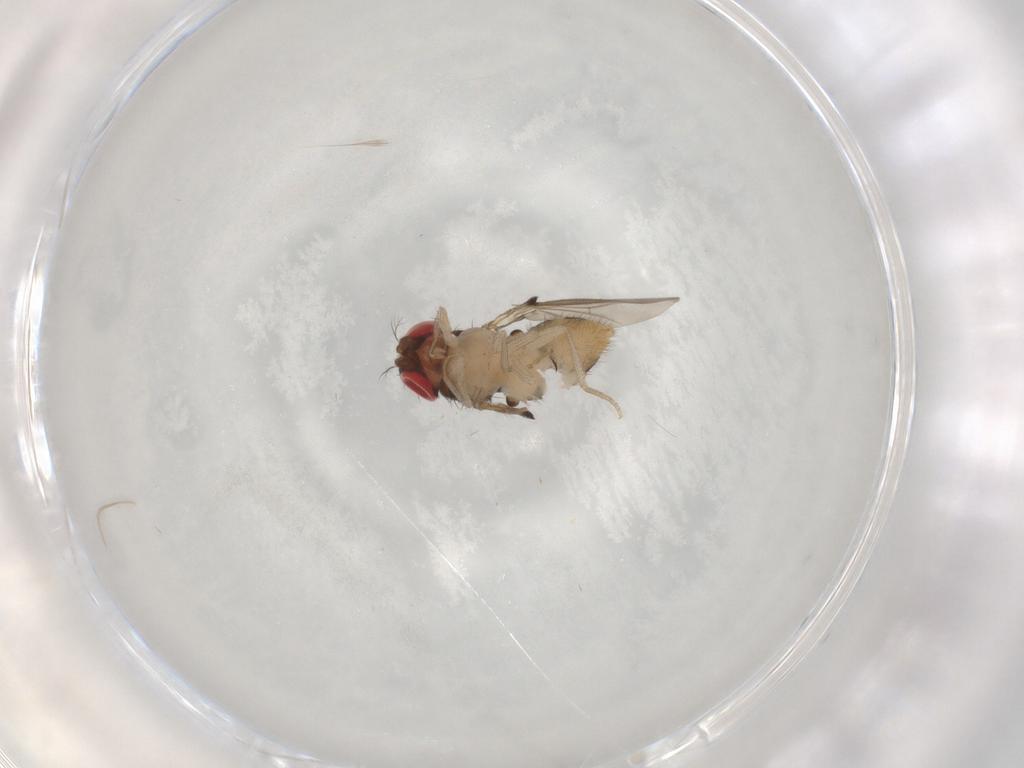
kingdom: Animalia
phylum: Arthropoda
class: Insecta
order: Diptera
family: Drosophilidae
